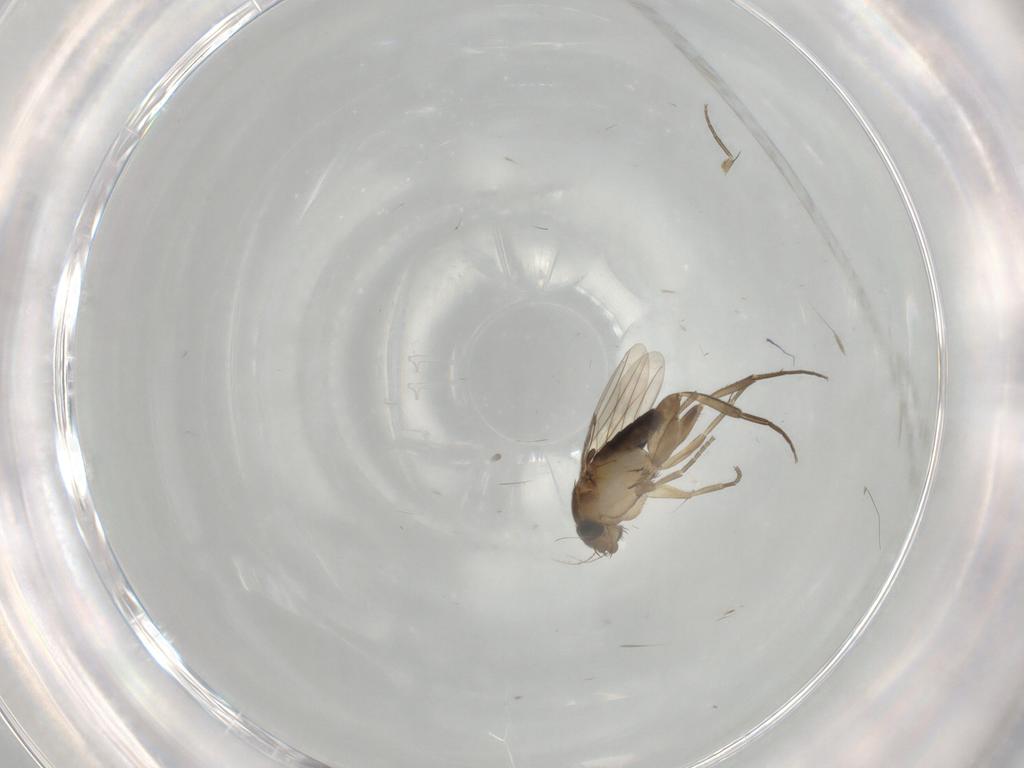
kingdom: Animalia
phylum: Arthropoda
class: Insecta
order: Diptera
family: Phoridae
